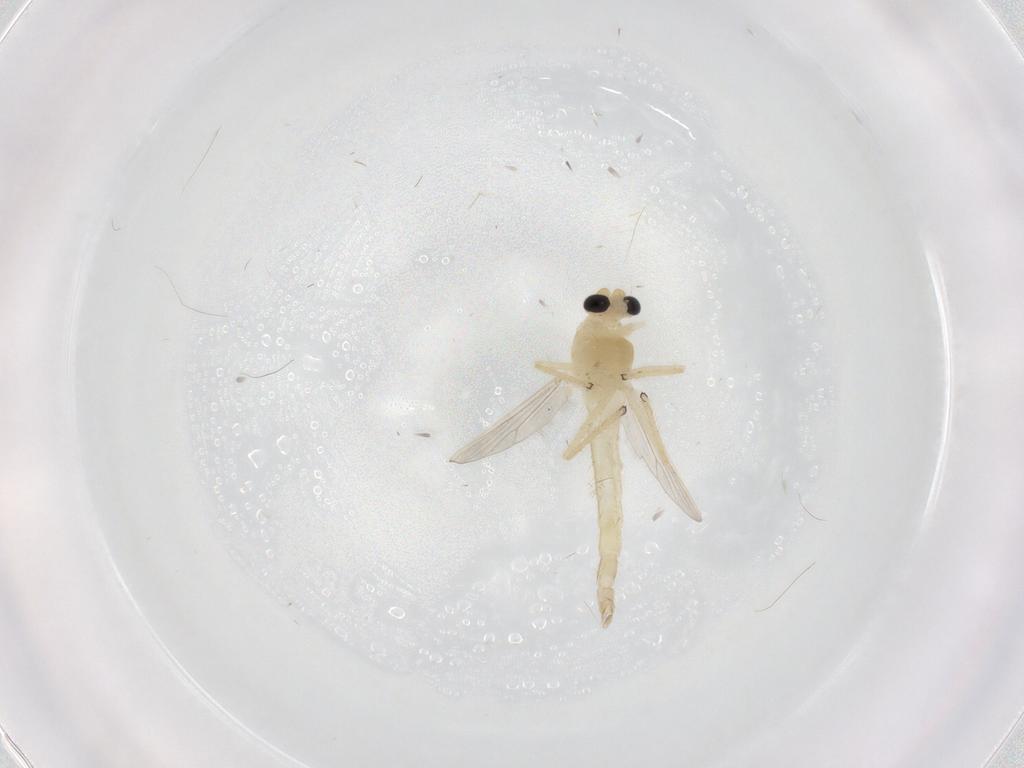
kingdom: Animalia
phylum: Arthropoda
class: Insecta
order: Diptera
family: Chironomidae
